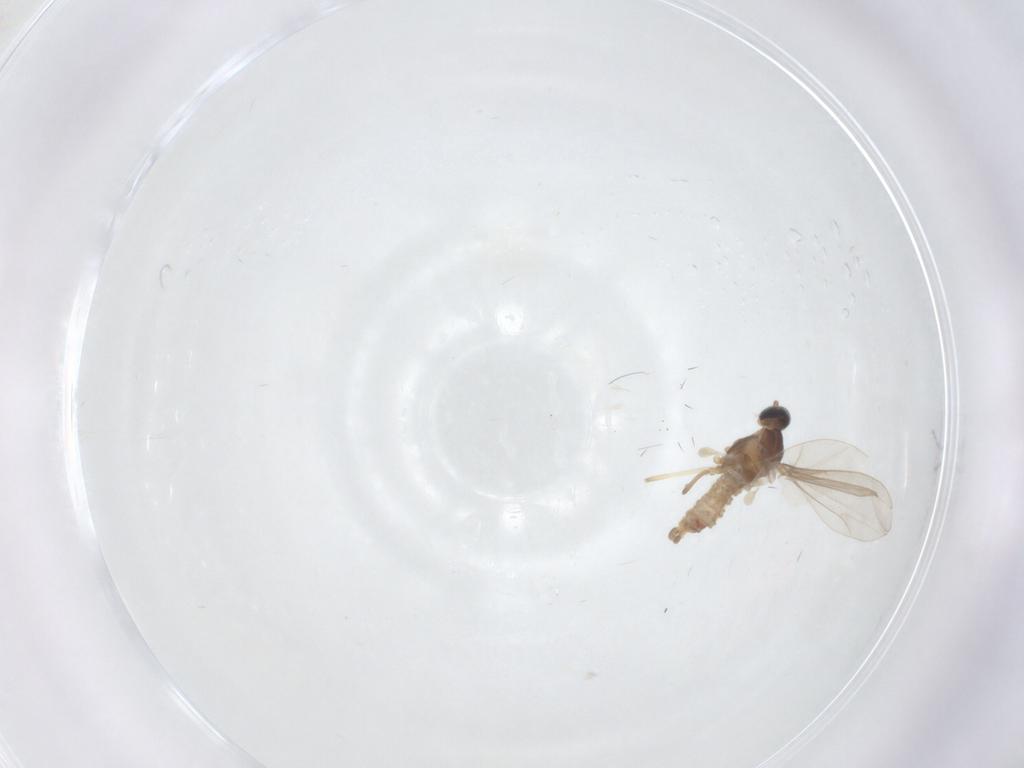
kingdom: Animalia
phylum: Arthropoda
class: Insecta
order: Diptera
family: Cecidomyiidae
